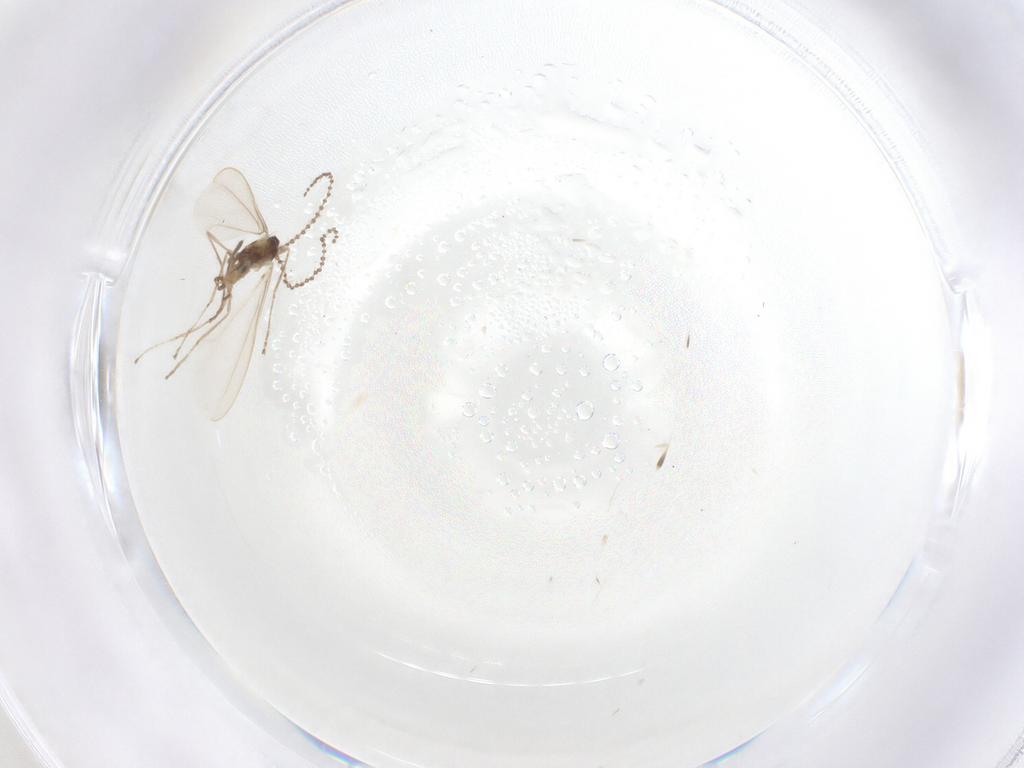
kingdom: Animalia
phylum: Arthropoda
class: Insecta
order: Diptera
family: Cecidomyiidae
